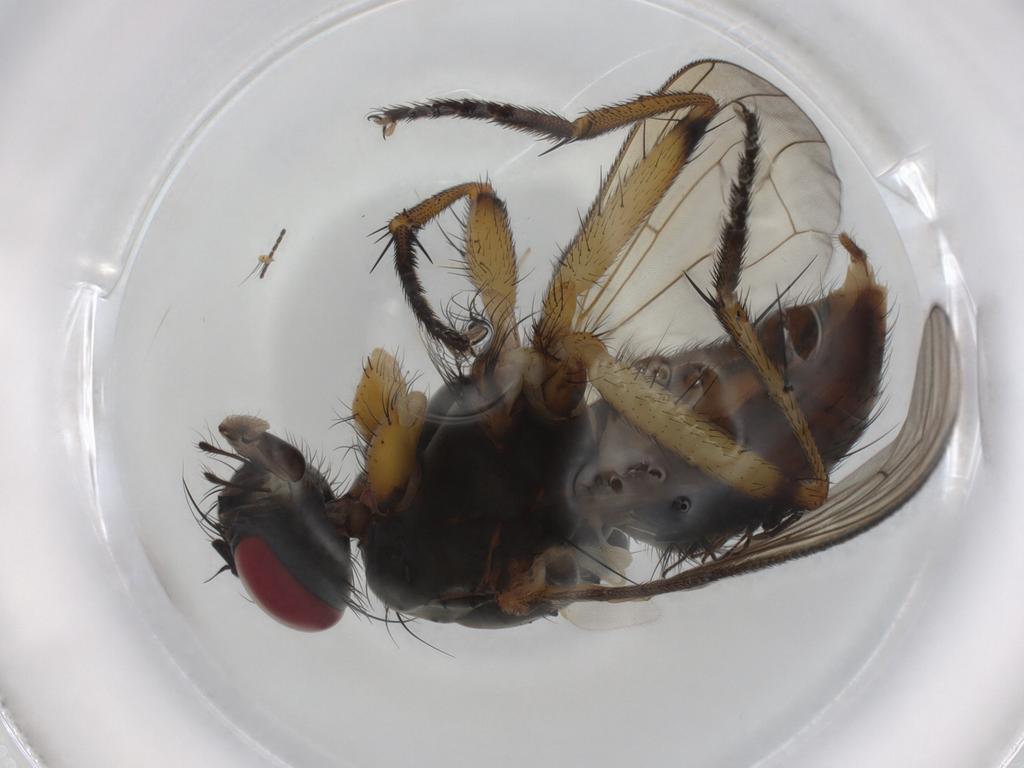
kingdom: Animalia
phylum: Arthropoda
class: Insecta
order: Diptera
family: Muscidae
